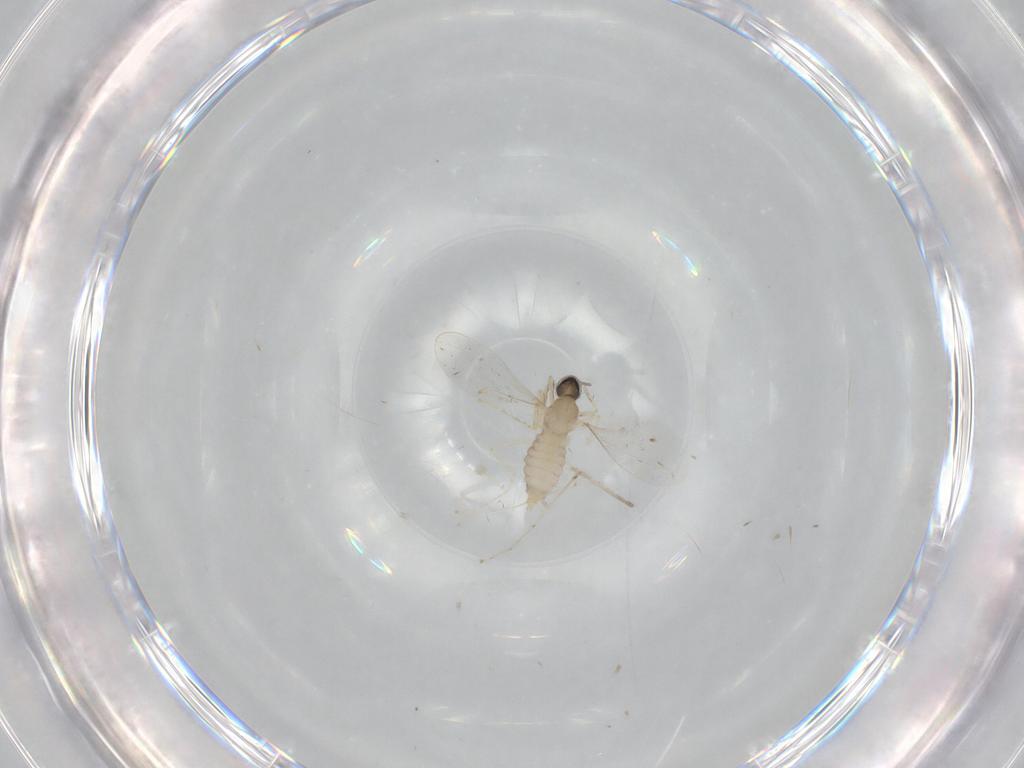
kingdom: Animalia
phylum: Arthropoda
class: Insecta
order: Diptera
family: Cecidomyiidae
